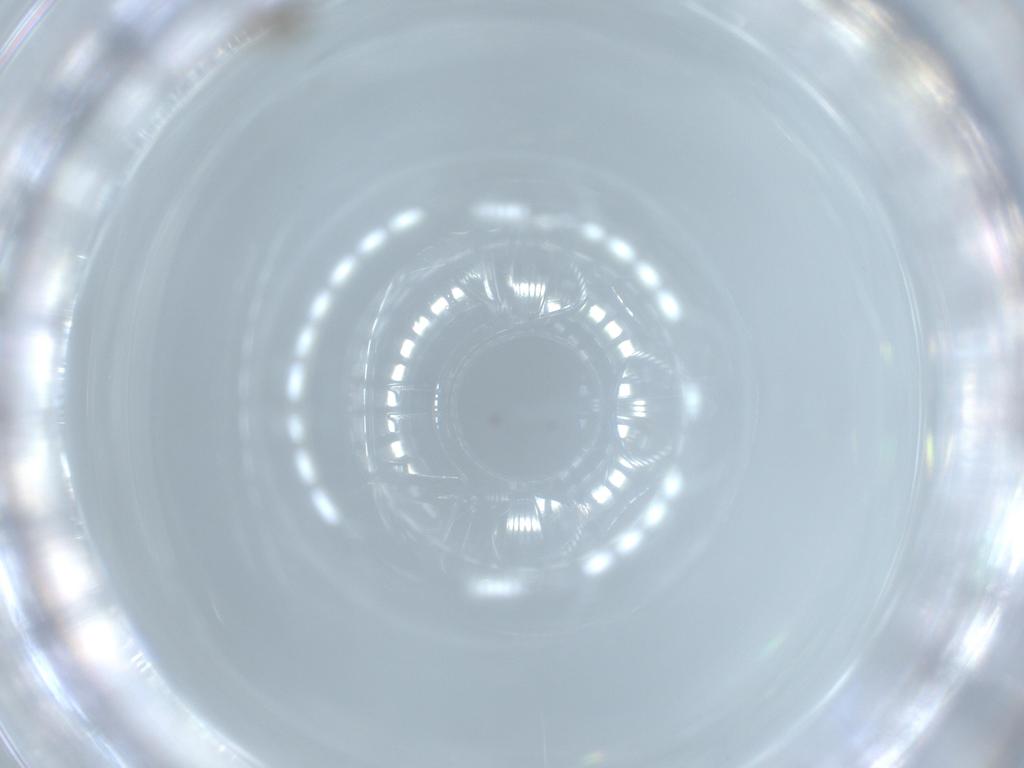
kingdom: Animalia
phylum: Arthropoda
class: Insecta
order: Diptera
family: Cecidomyiidae
